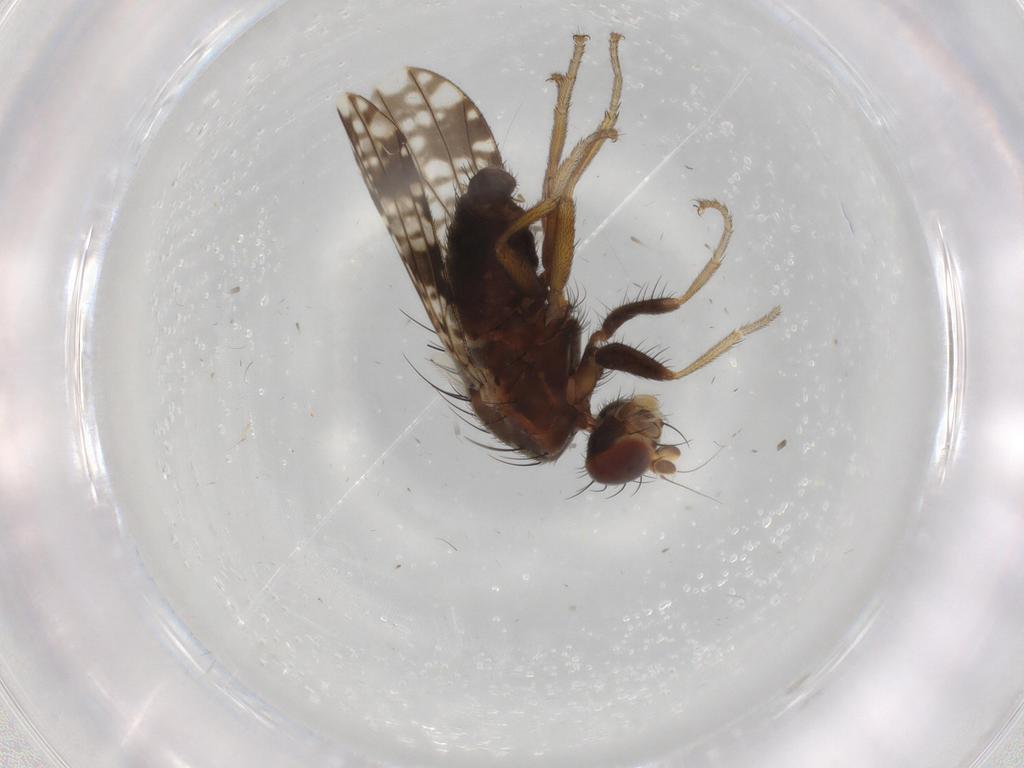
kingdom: Animalia
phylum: Arthropoda
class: Insecta
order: Diptera
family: Tephritidae
